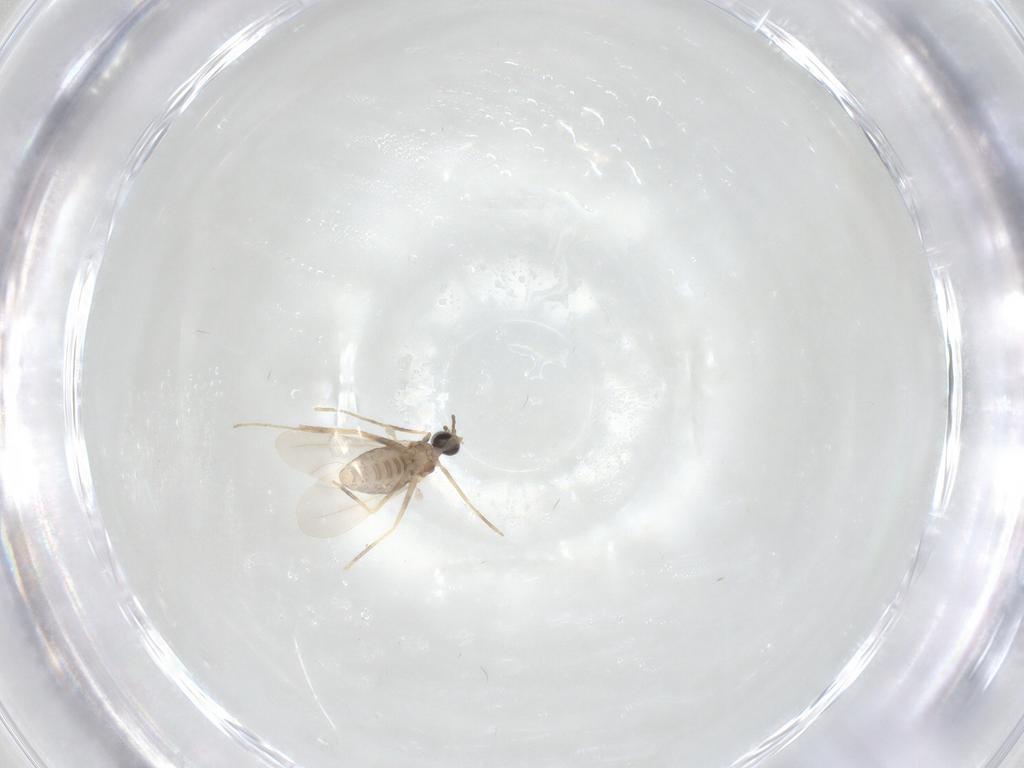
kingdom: Animalia
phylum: Arthropoda
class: Insecta
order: Diptera
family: Cecidomyiidae
